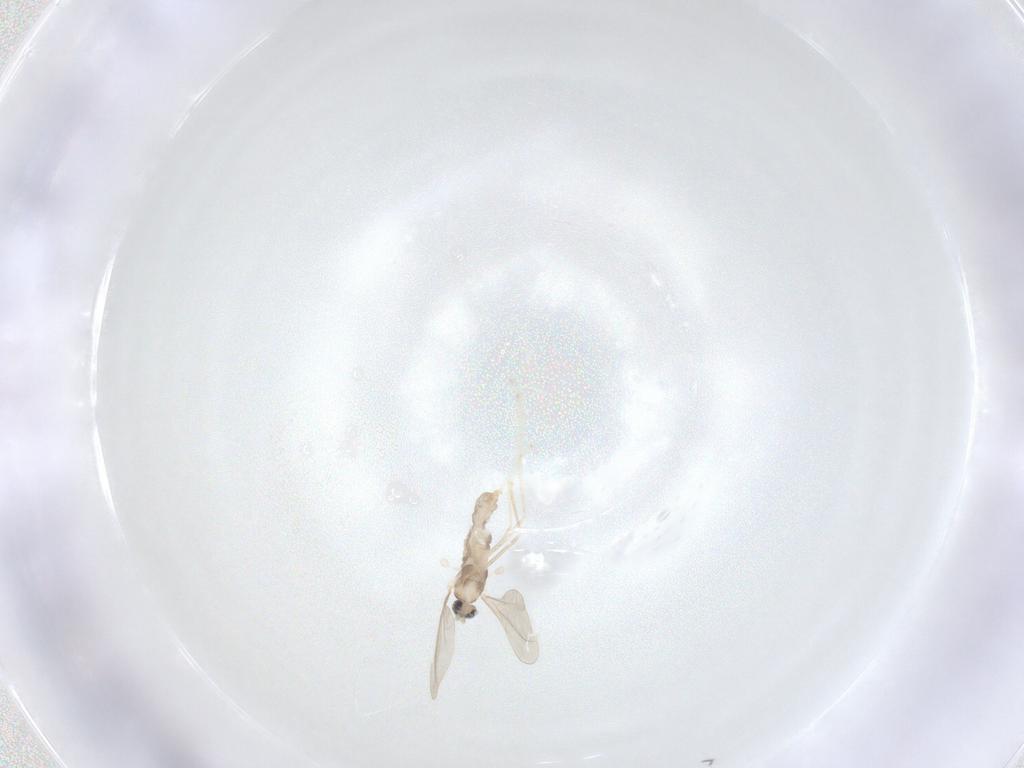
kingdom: Animalia
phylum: Arthropoda
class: Insecta
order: Diptera
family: Cecidomyiidae
